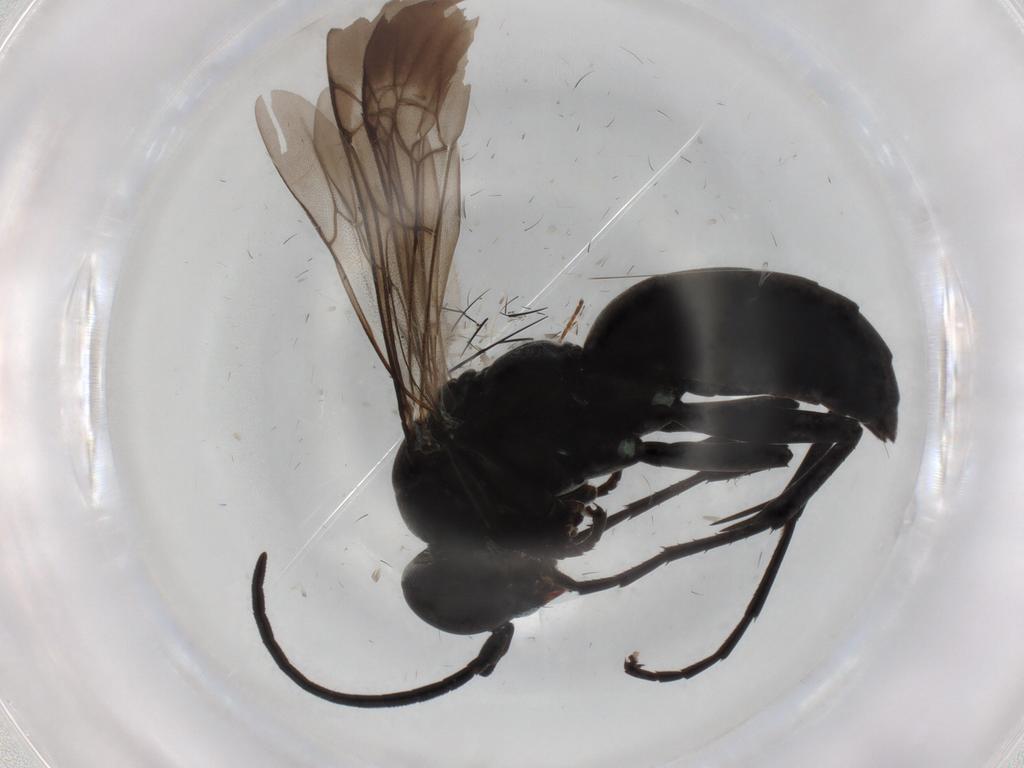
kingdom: Animalia
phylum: Arthropoda
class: Insecta
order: Hymenoptera
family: Pompilidae
